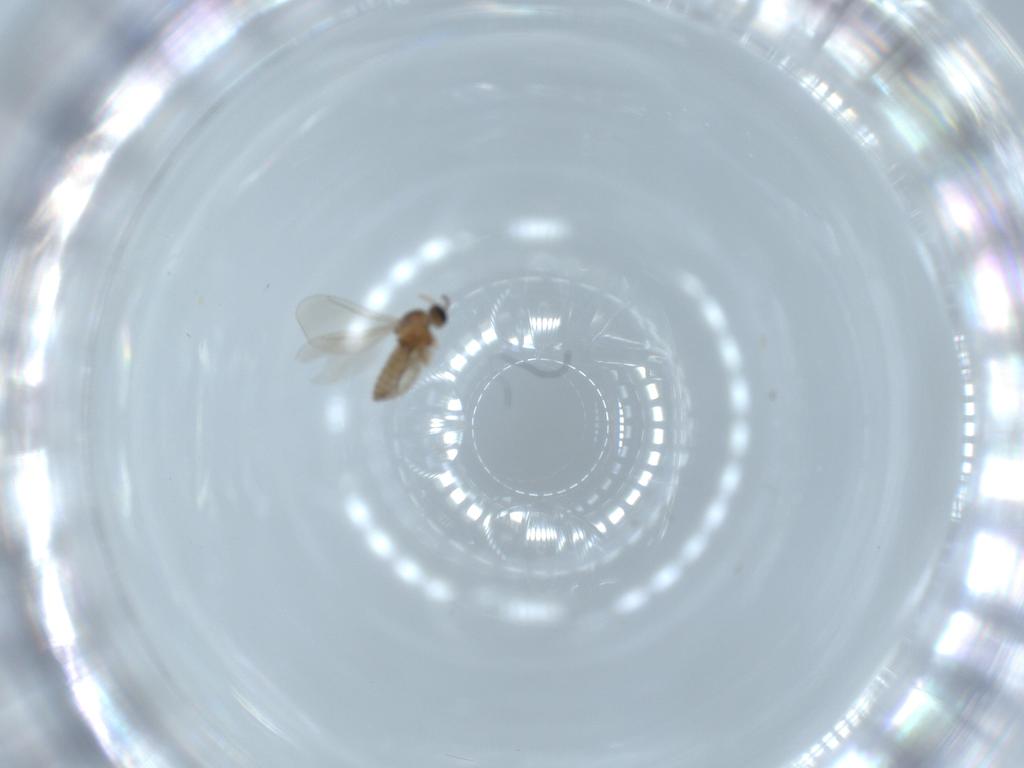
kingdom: Animalia
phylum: Arthropoda
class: Insecta
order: Diptera
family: Cecidomyiidae
